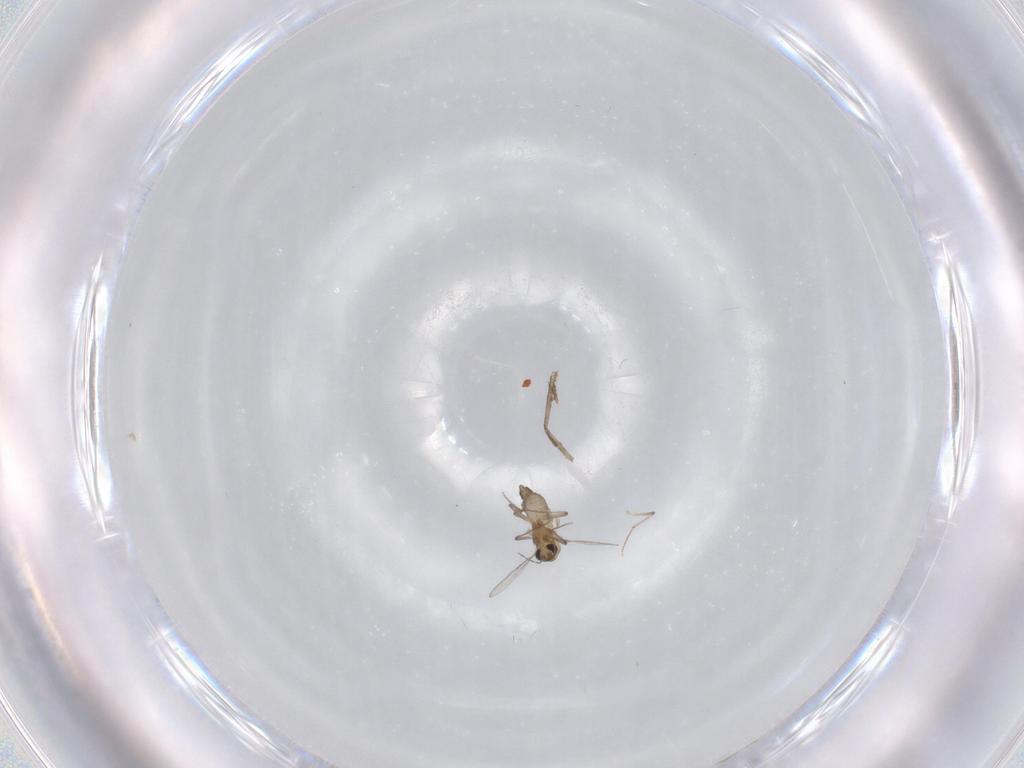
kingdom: Animalia
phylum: Arthropoda
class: Insecta
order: Diptera
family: Chironomidae
